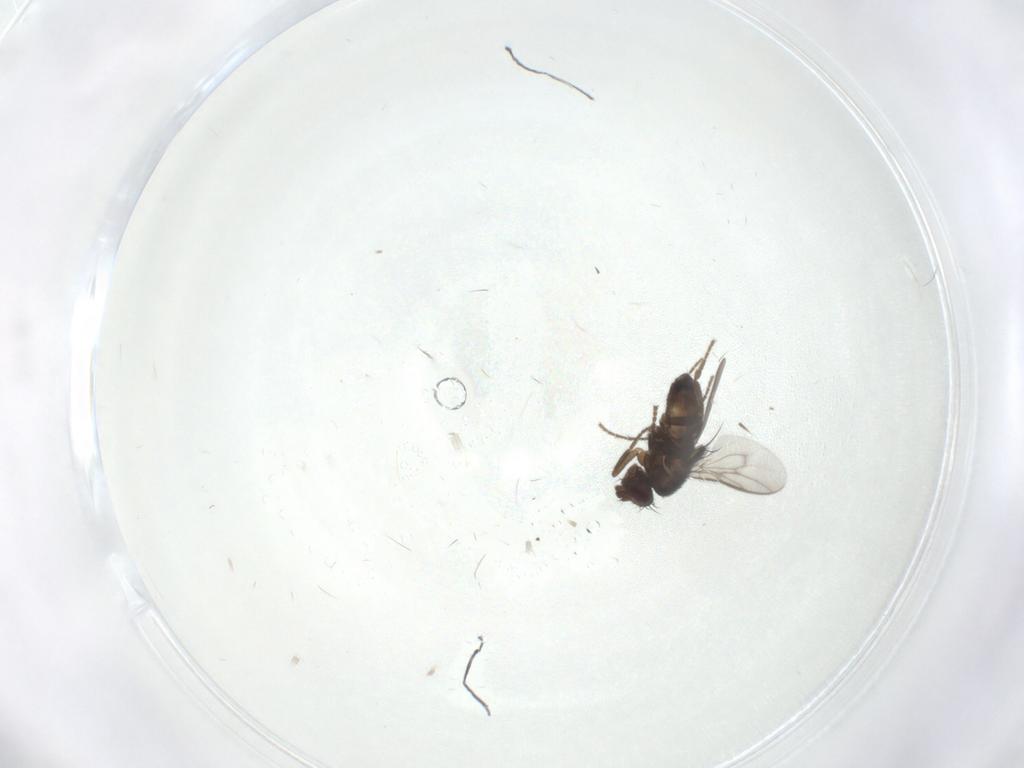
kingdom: Animalia
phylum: Arthropoda
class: Insecta
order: Diptera
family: Sphaeroceridae
